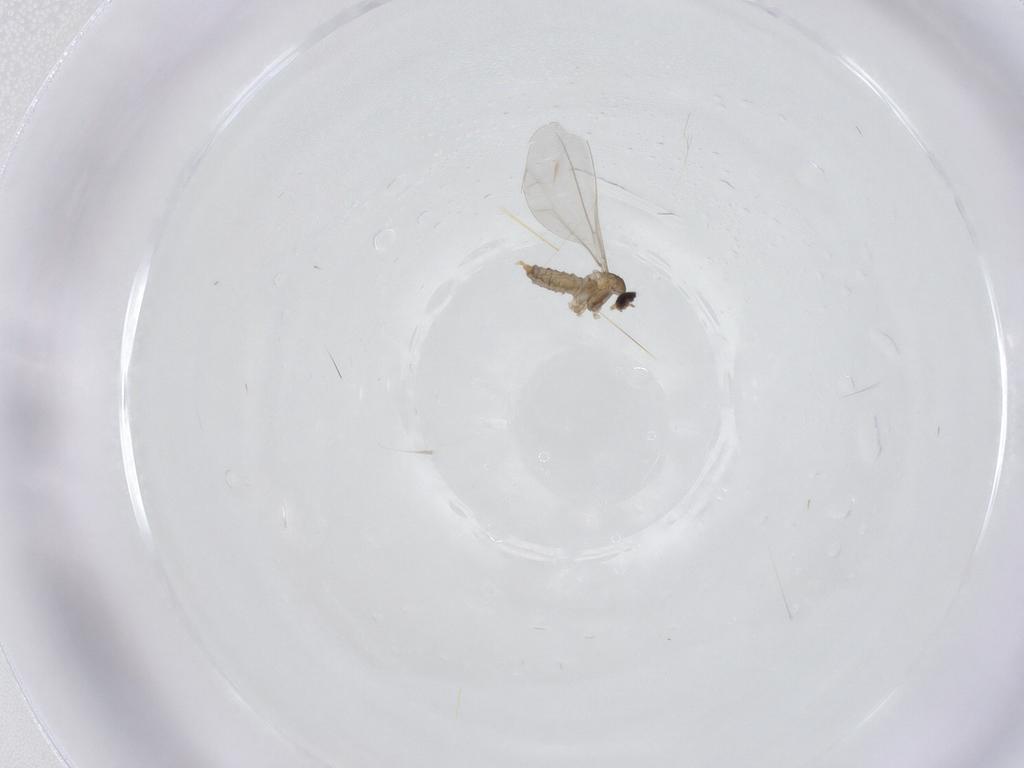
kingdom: Animalia
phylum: Arthropoda
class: Insecta
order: Diptera
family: Cecidomyiidae
